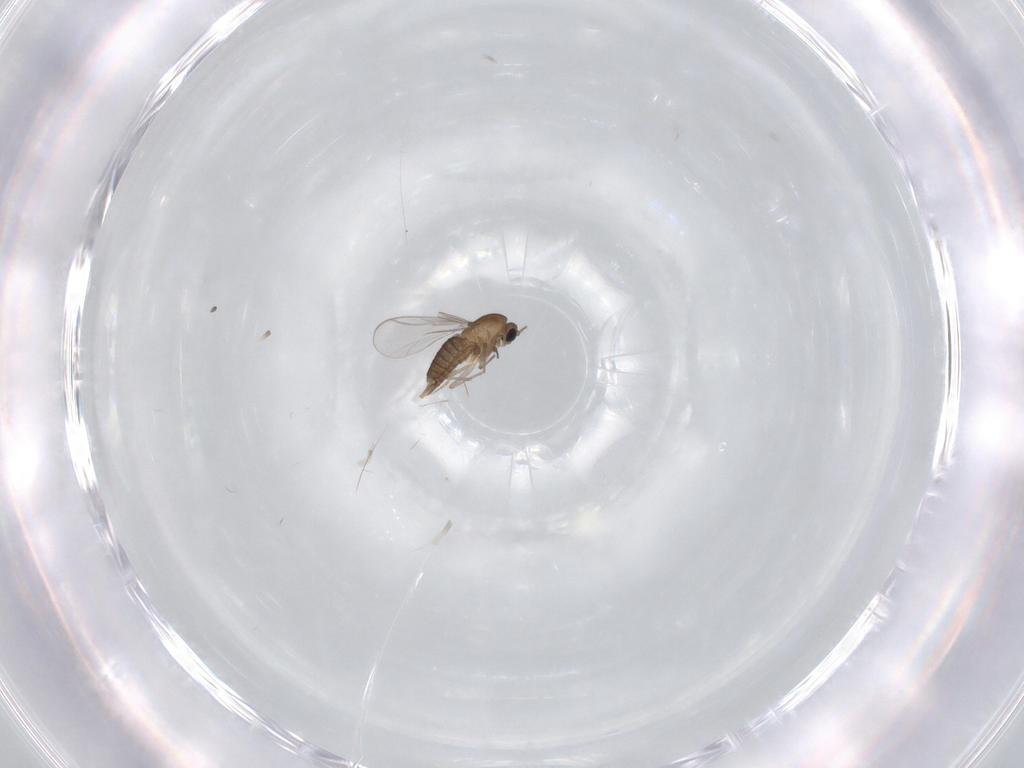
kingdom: Animalia
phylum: Arthropoda
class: Insecta
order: Diptera
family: Chironomidae
